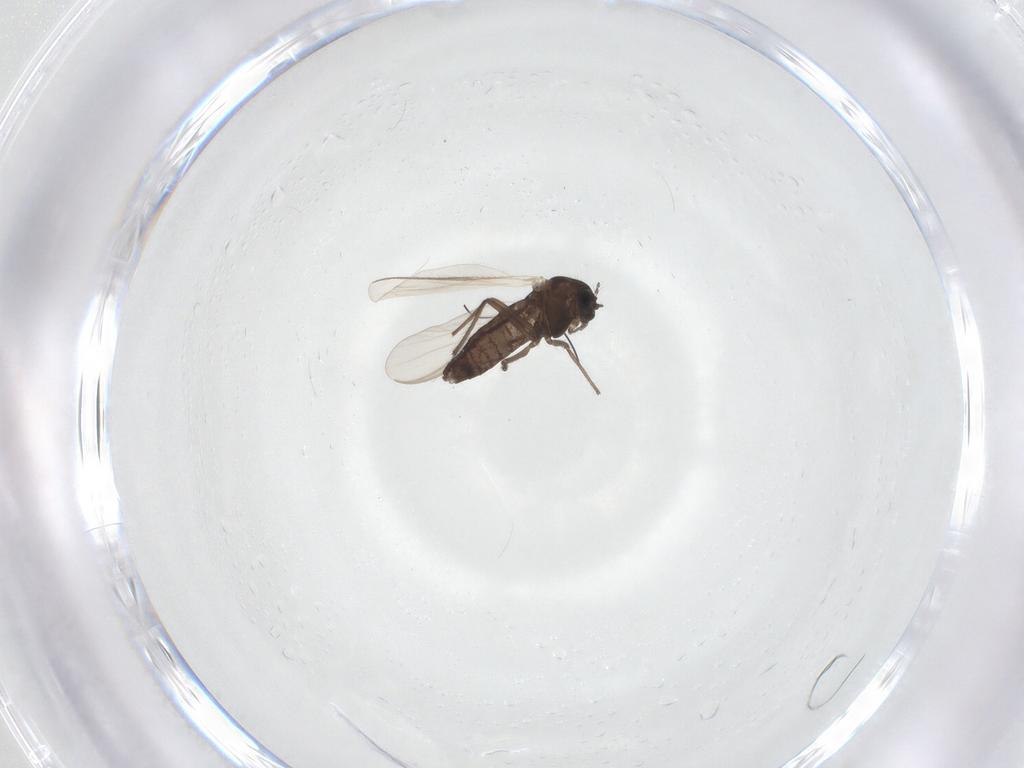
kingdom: Animalia
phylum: Arthropoda
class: Insecta
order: Diptera
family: Chironomidae
